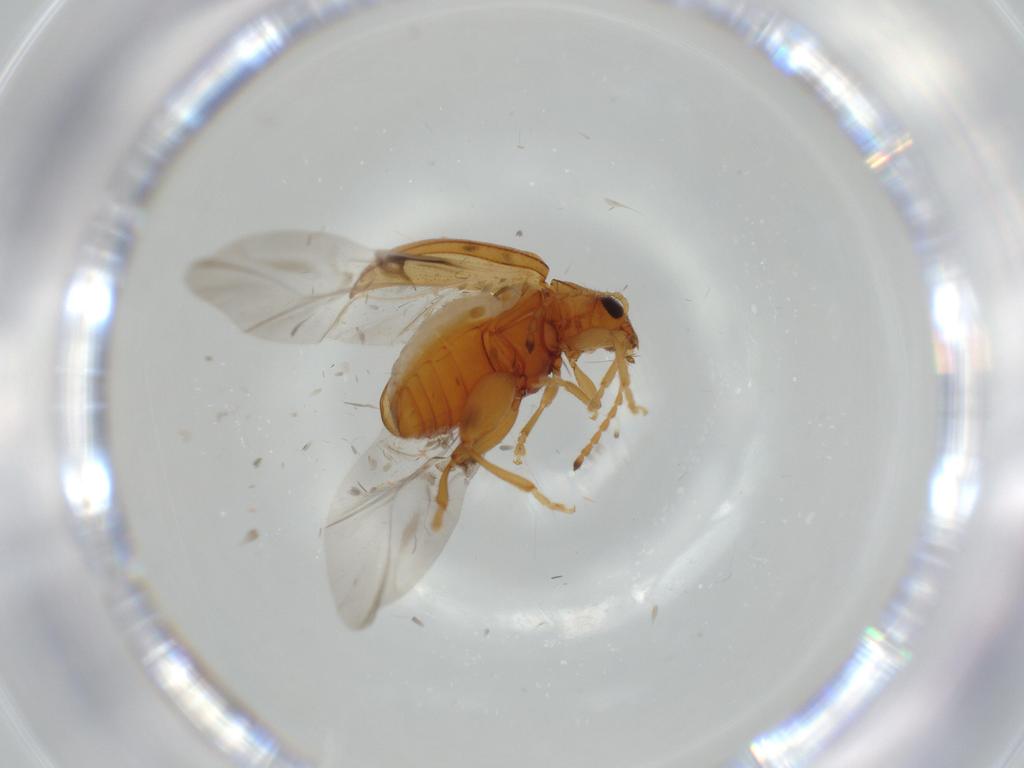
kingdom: Animalia
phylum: Arthropoda
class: Insecta
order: Coleoptera
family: Chrysomelidae
